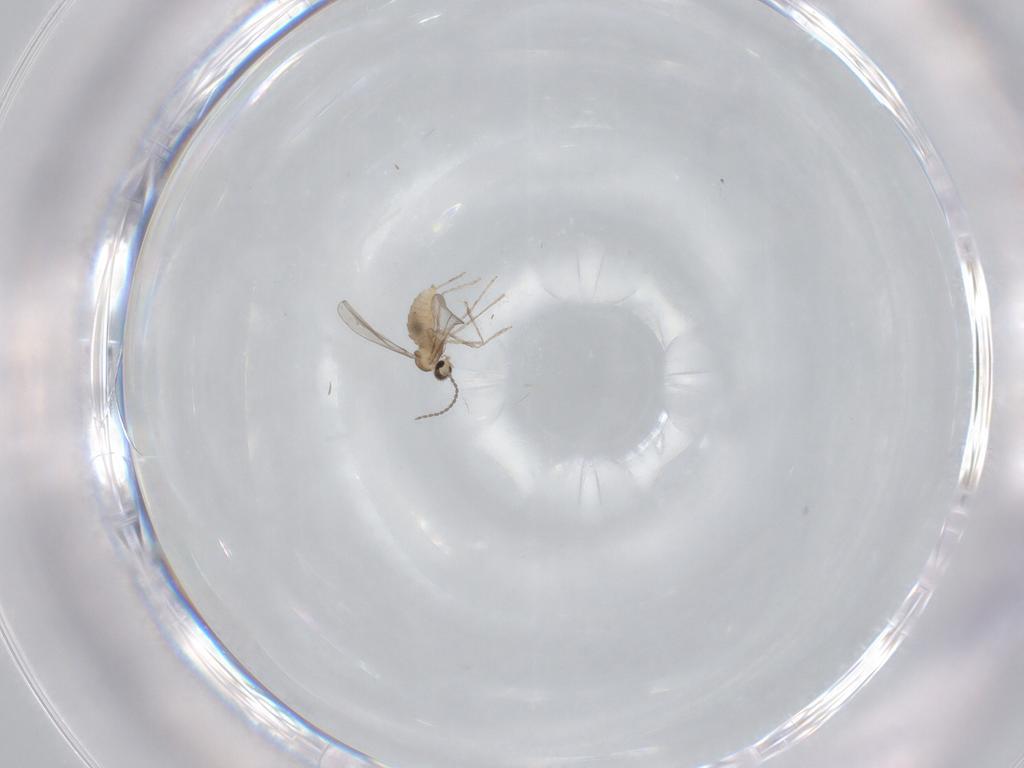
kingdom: Animalia
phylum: Arthropoda
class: Insecta
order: Diptera
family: Cecidomyiidae
